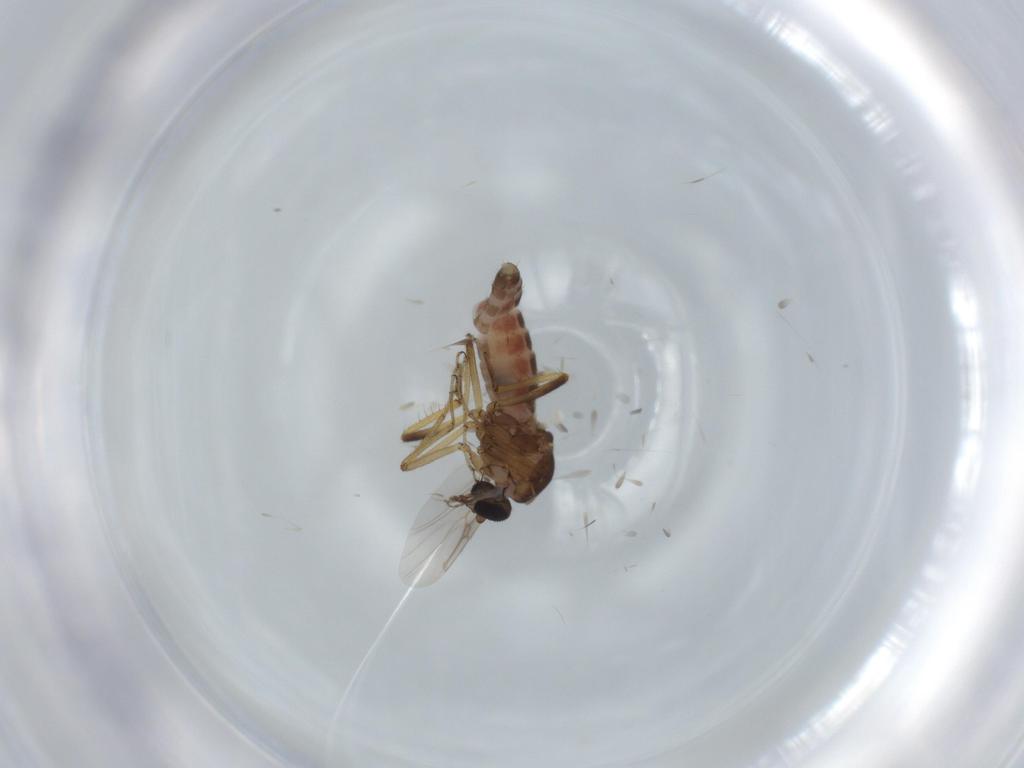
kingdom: Animalia
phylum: Arthropoda
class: Insecta
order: Diptera
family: Ceratopogonidae
